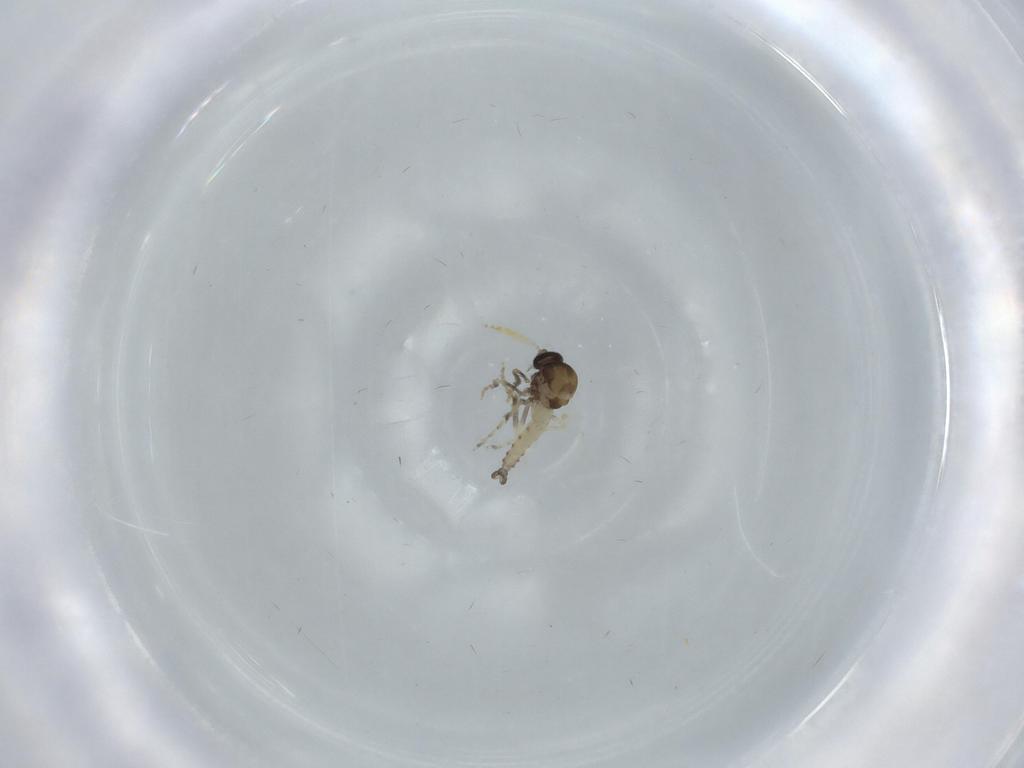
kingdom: Animalia
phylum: Arthropoda
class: Insecta
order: Diptera
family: Ceratopogonidae
